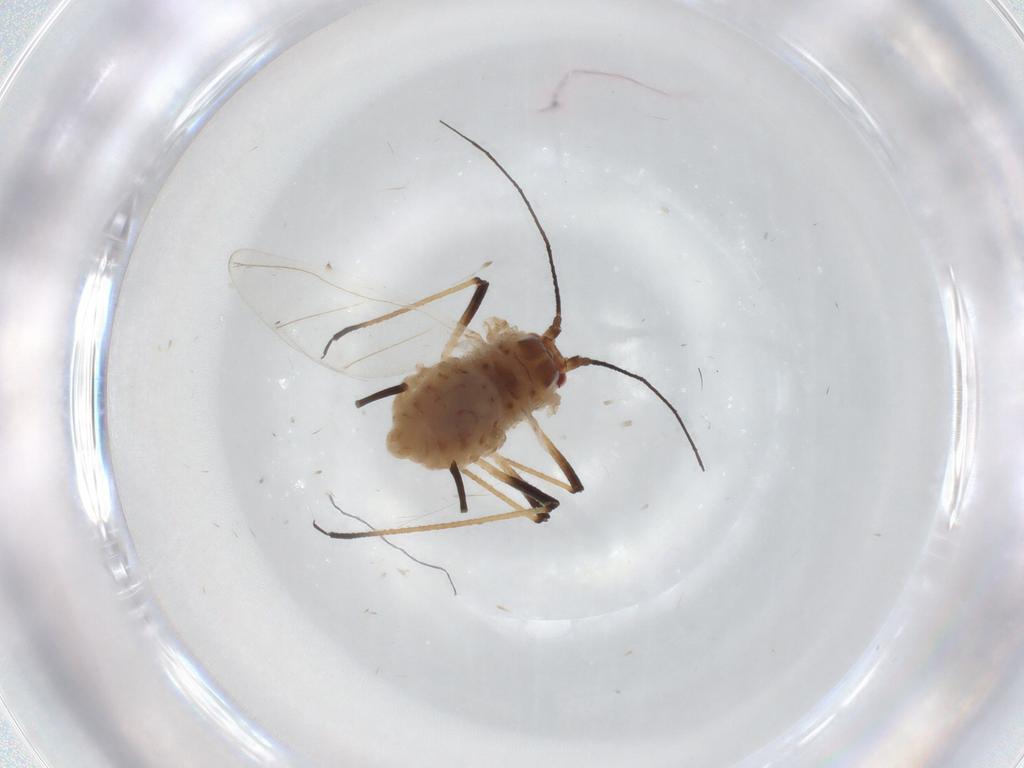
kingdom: Animalia
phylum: Arthropoda
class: Insecta
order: Hemiptera
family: Aphididae
